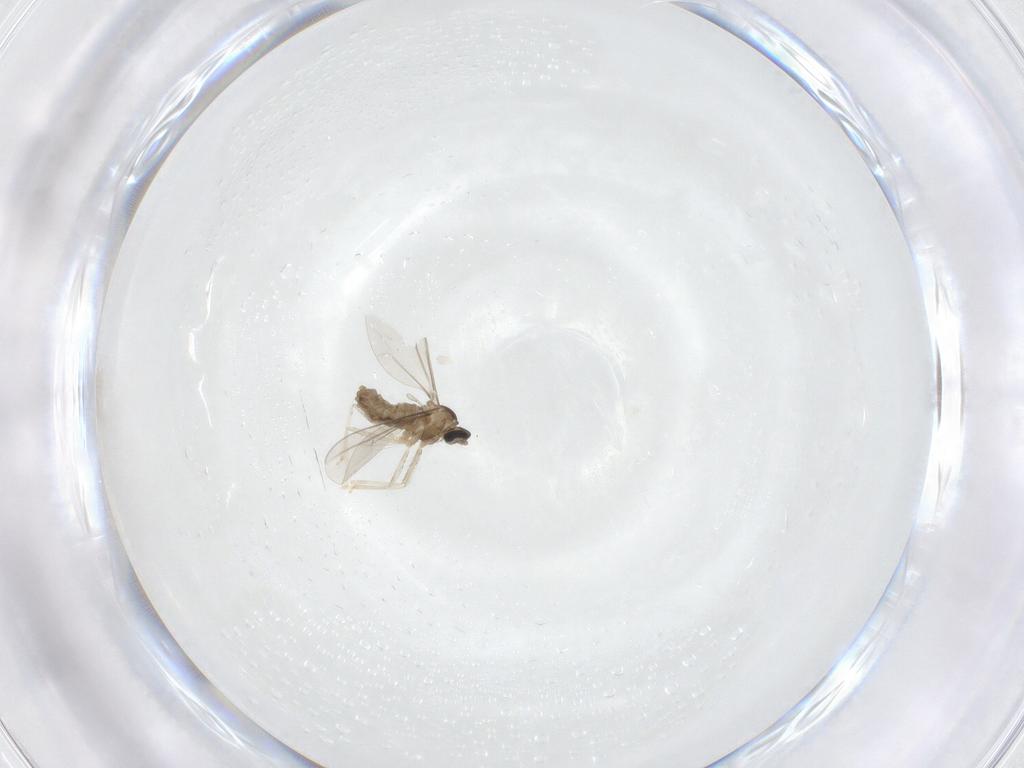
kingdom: Animalia
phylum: Arthropoda
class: Insecta
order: Diptera
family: Cecidomyiidae
